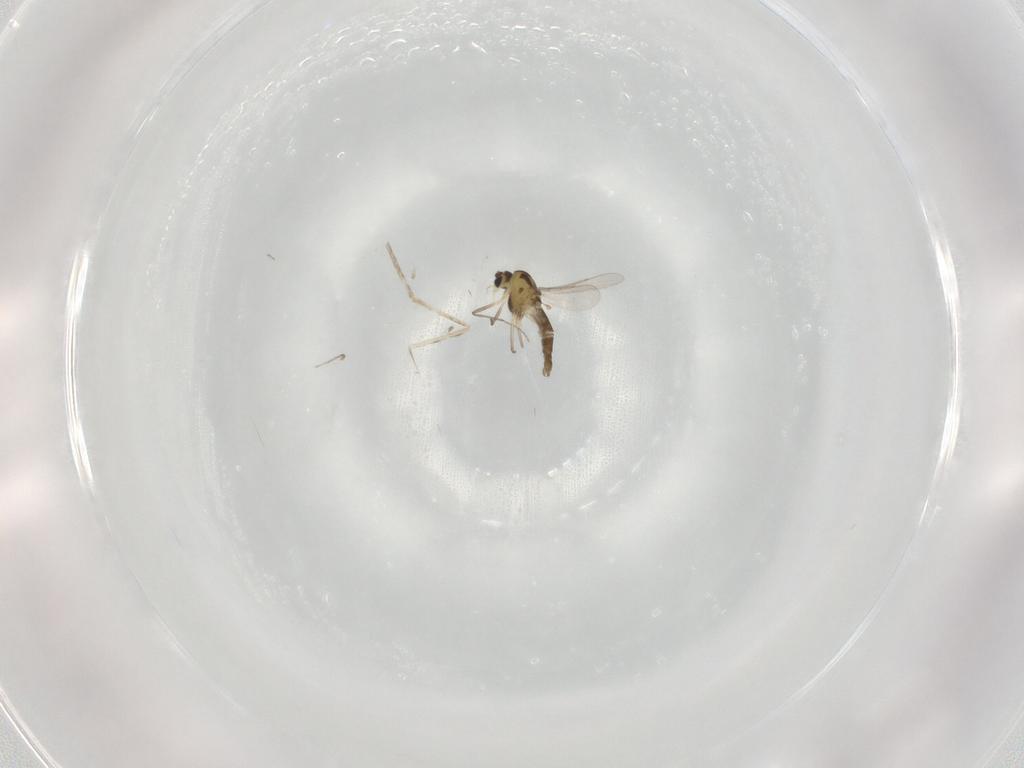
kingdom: Animalia
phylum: Arthropoda
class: Insecta
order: Diptera
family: Chironomidae
